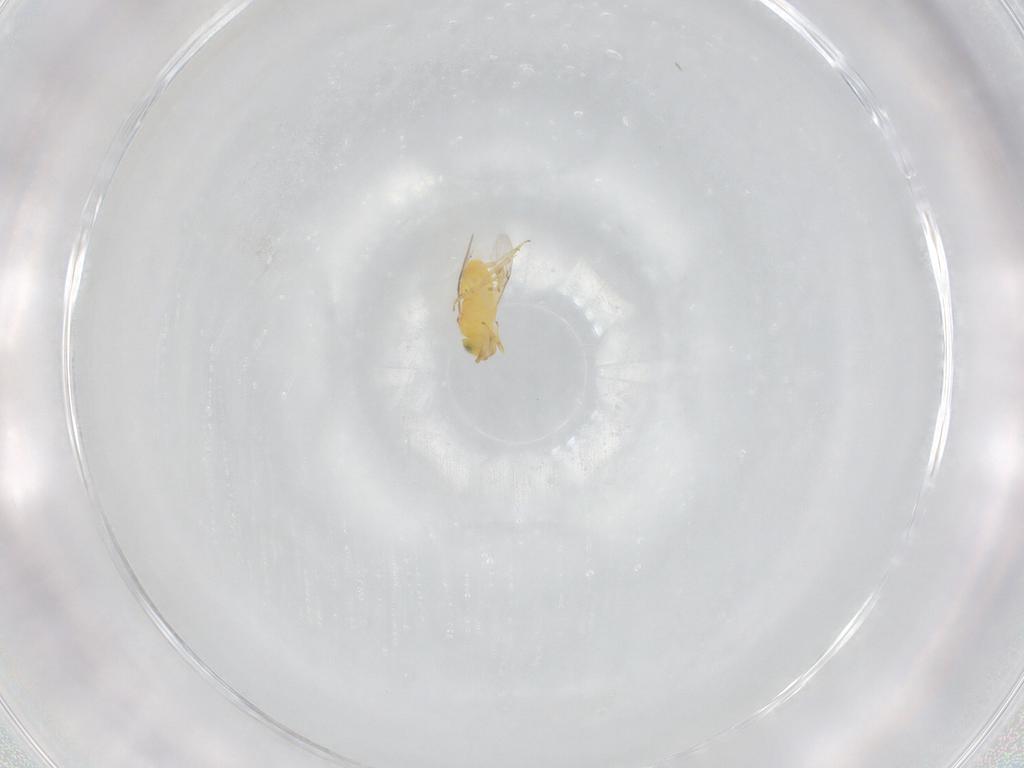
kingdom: Animalia
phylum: Arthropoda
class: Insecta
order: Hymenoptera
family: Encyrtidae
